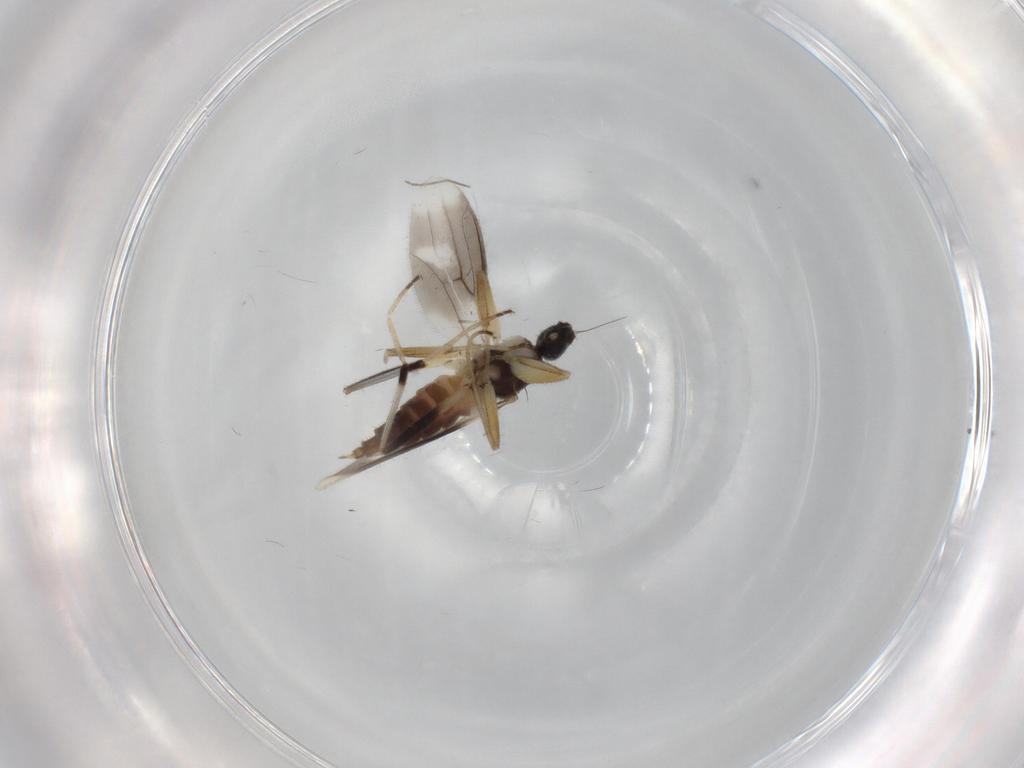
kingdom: Animalia
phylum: Arthropoda
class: Insecta
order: Diptera
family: Hybotidae
